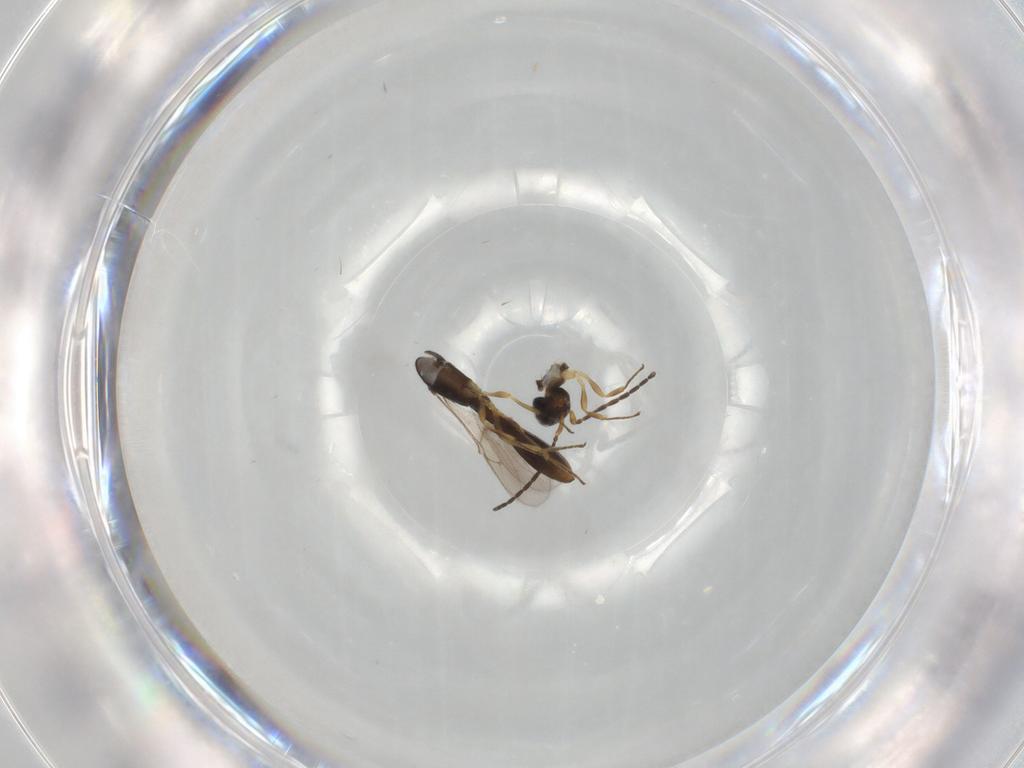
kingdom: Animalia
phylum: Arthropoda
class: Insecta
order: Hymenoptera
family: Scelionidae
